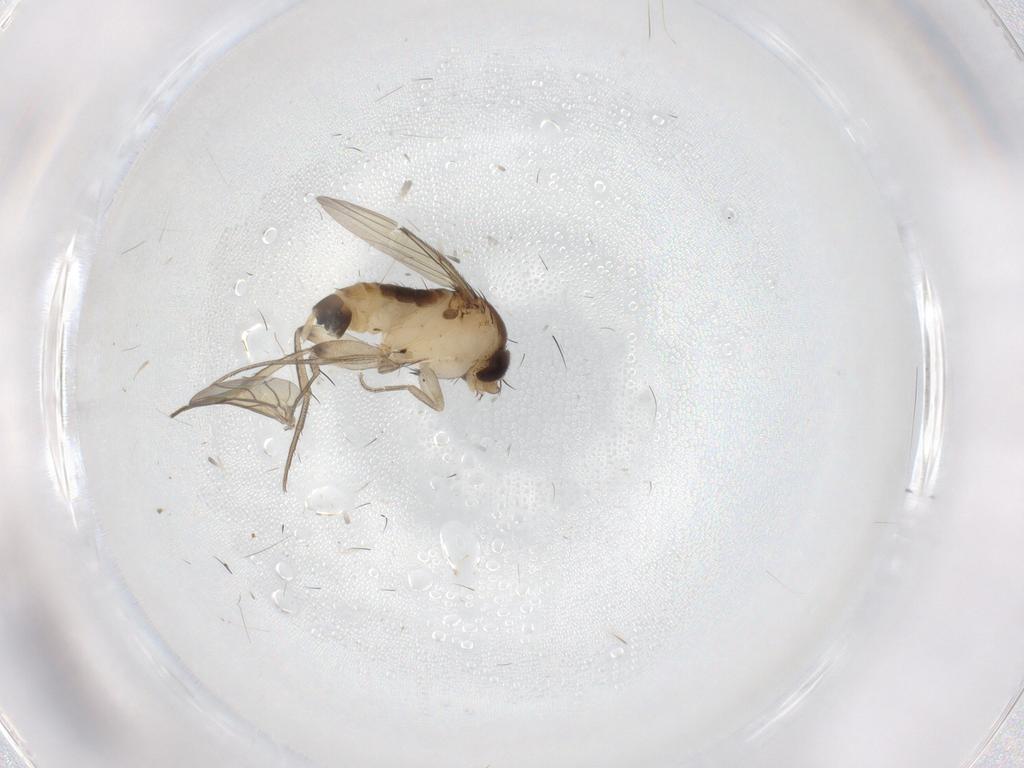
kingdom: Animalia
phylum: Arthropoda
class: Insecta
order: Diptera
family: Phoridae
